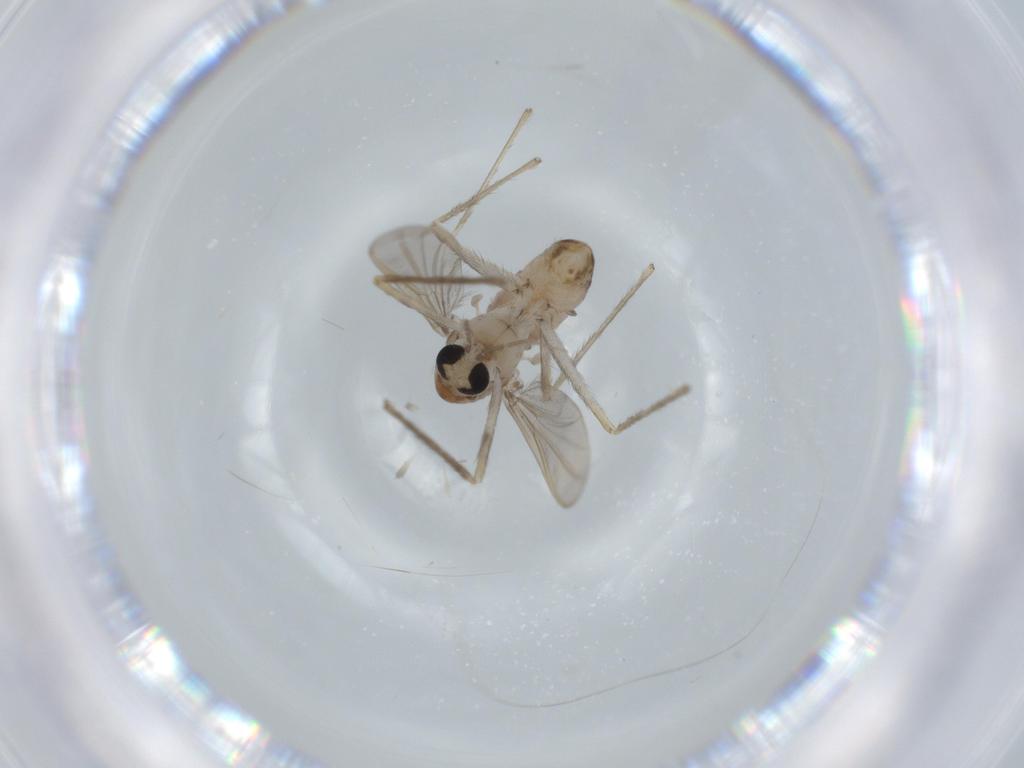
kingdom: Animalia
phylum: Arthropoda
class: Insecta
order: Diptera
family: Chironomidae
